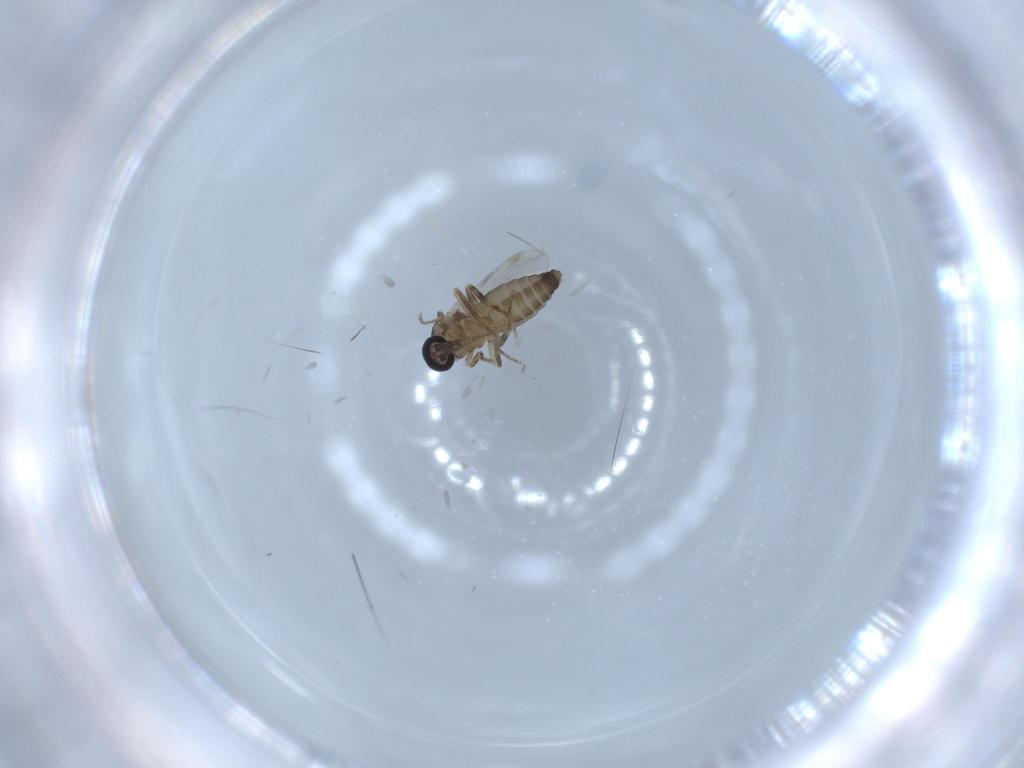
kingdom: Animalia
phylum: Arthropoda
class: Insecta
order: Diptera
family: Ceratopogonidae
